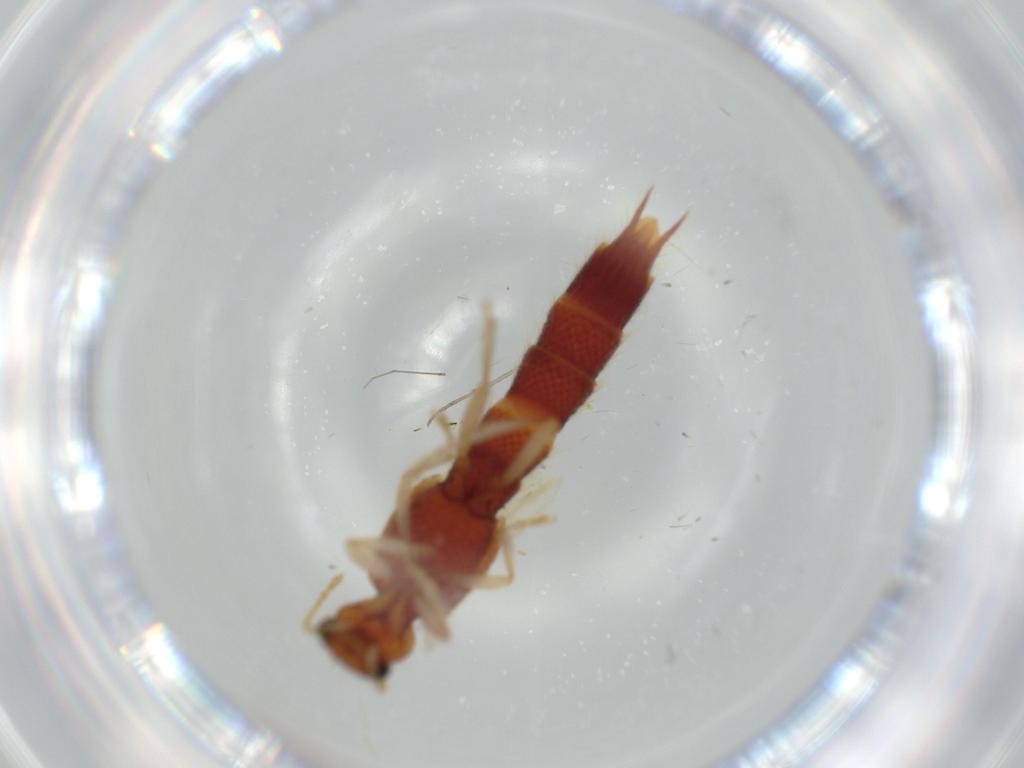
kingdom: Animalia
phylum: Arthropoda
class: Insecta
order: Coleoptera
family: Staphylinidae
